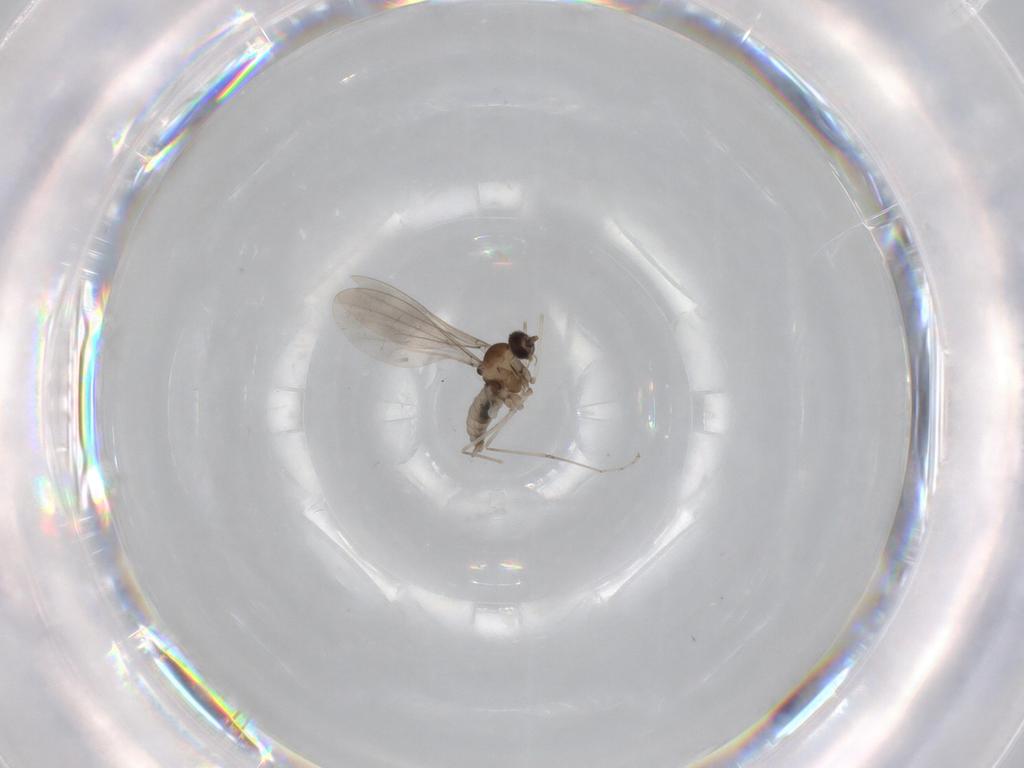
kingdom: Animalia
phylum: Arthropoda
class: Insecta
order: Diptera
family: Cecidomyiidae
